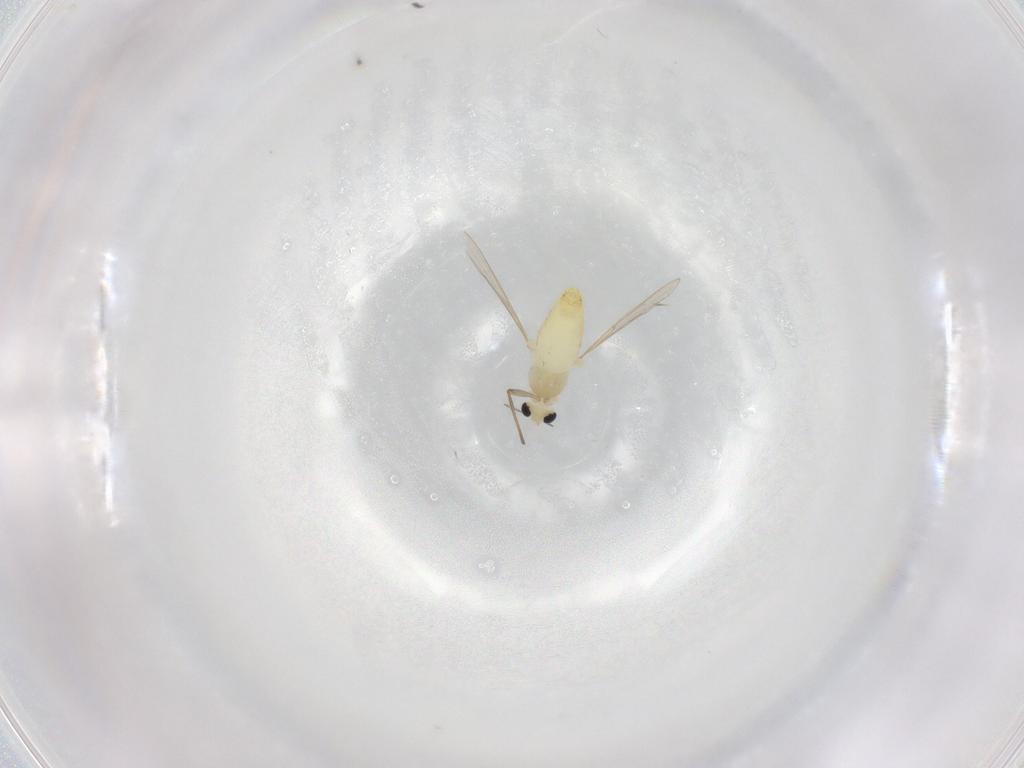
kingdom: Animalia
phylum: Arthropoda
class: Insecta
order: Diptera
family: Chironomidae
